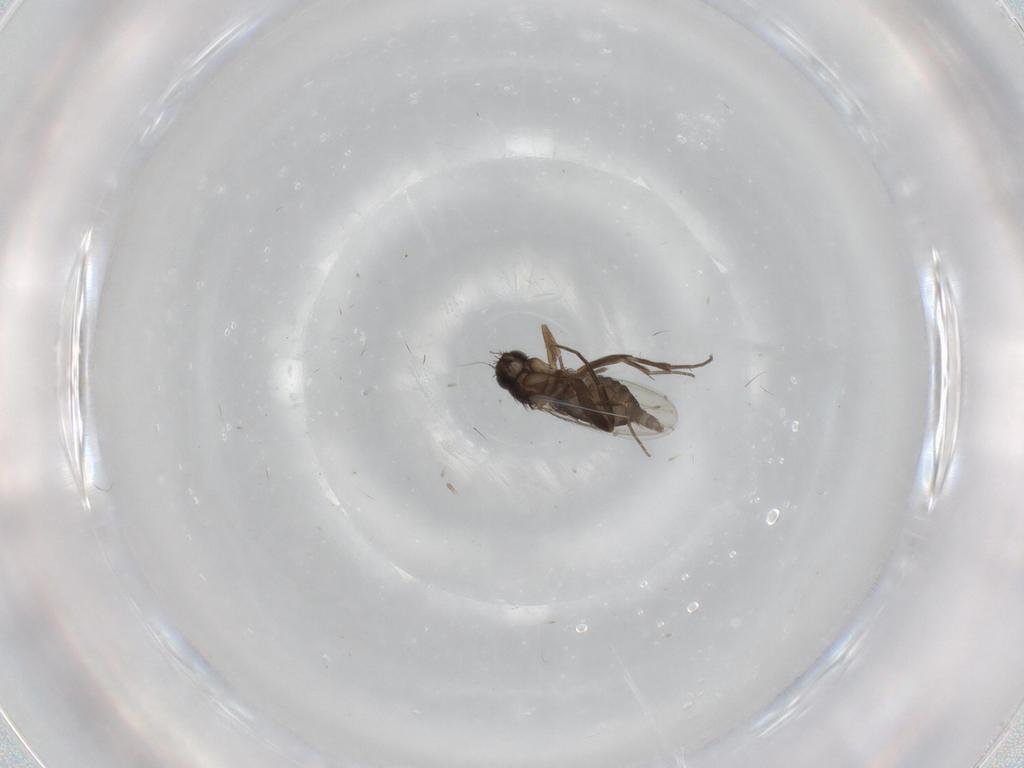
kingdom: Animalia
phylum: Arthropoda
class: Insecta
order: Diptera
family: Phoridae
